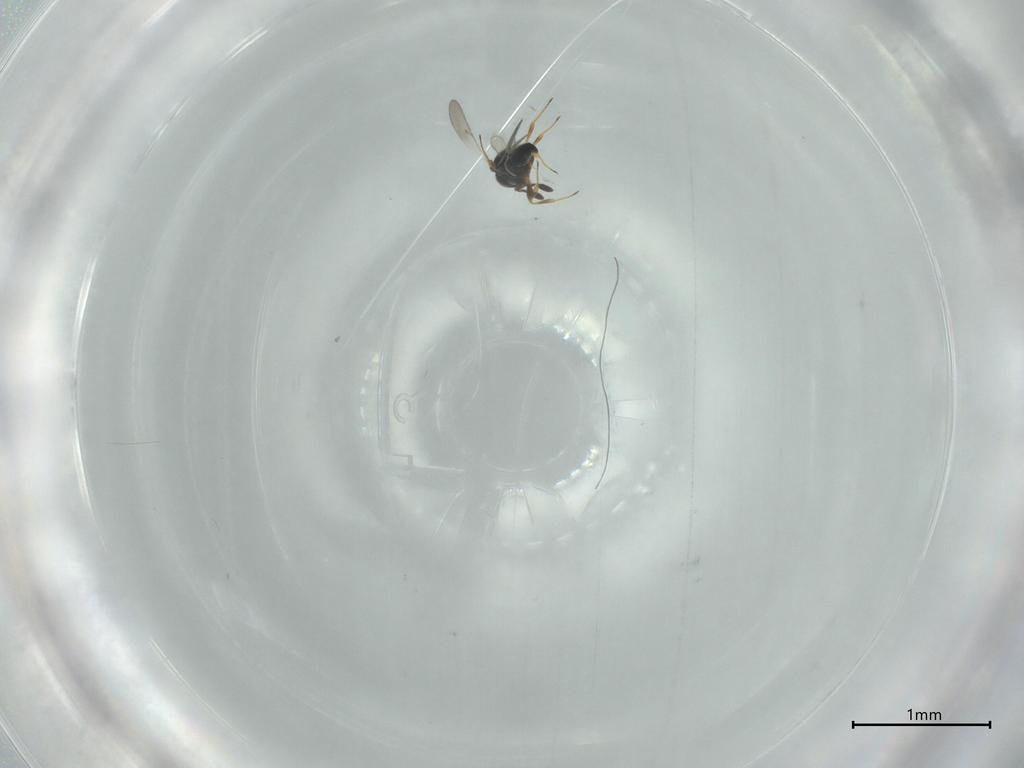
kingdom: Animalia
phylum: Arthropoda
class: Insecta
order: Hymenoptera
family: Scelionidae
